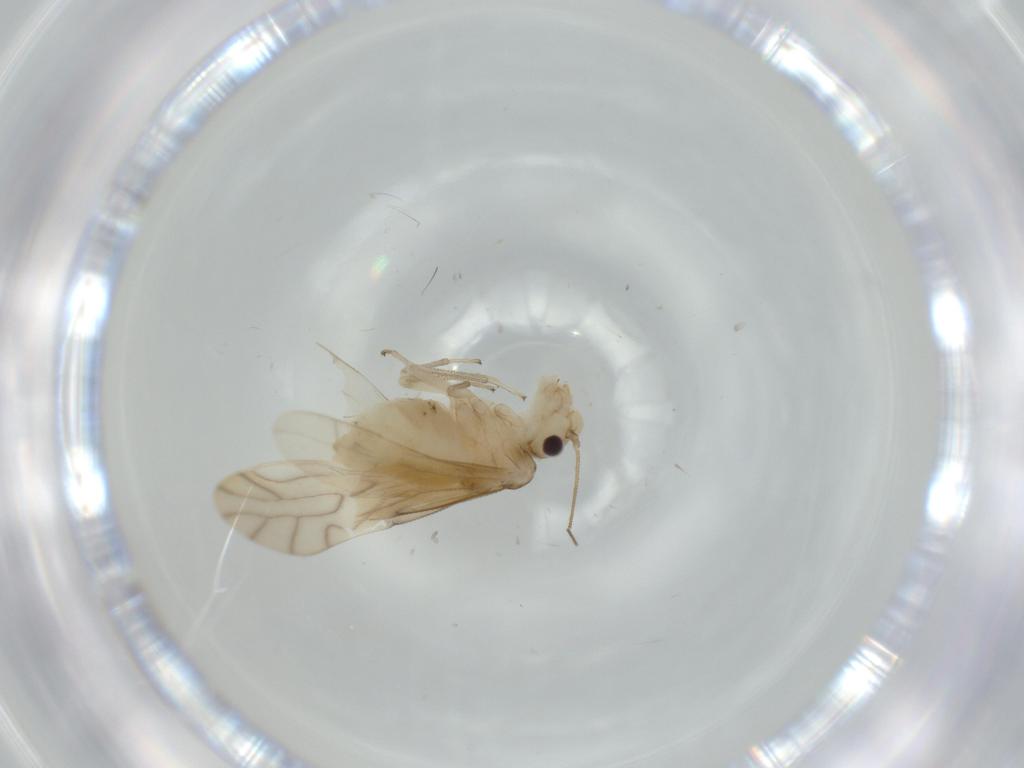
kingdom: Animalia
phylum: Arthropoda
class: Insecta
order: Psocodea
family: Caeciliusidae
